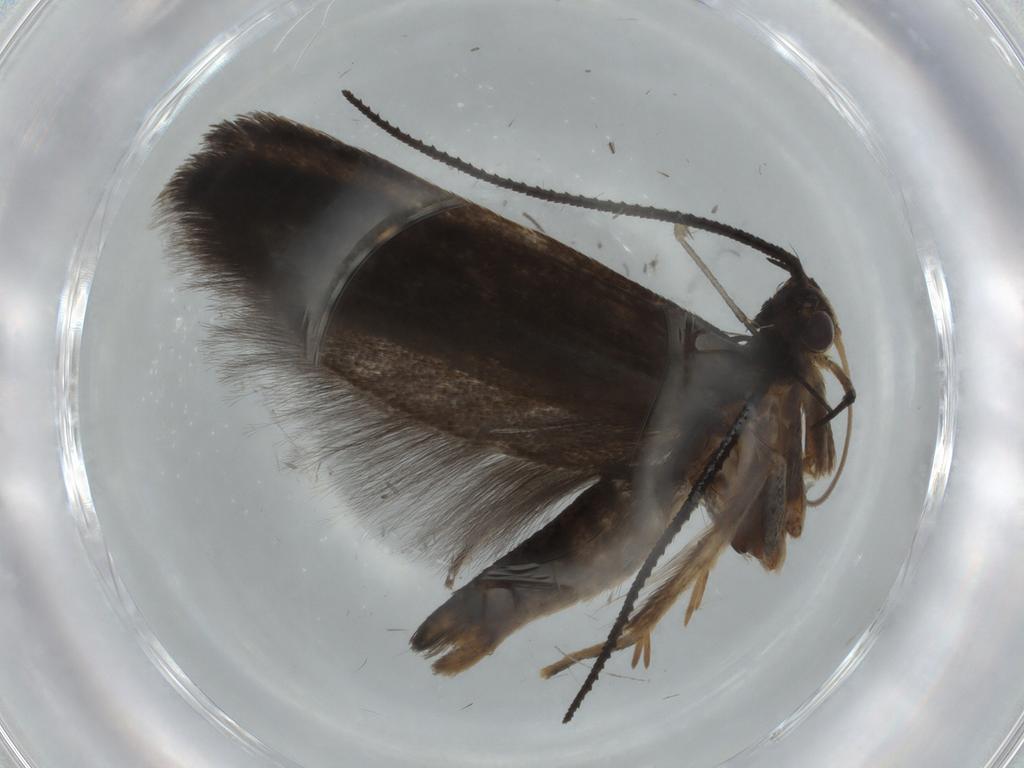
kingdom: Animalia
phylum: Arthropoda
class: Insecta
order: Lepidoptera
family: Gelechiidae
